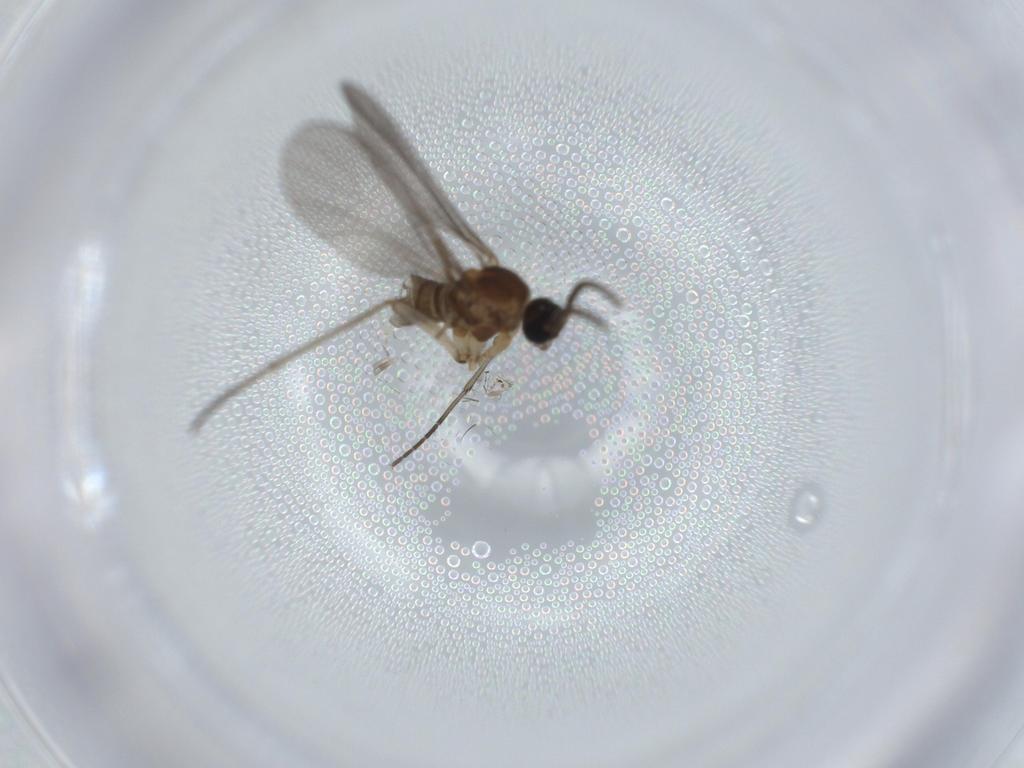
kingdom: Animalia
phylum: Arthropoda
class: Insecta
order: Diptera
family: Sciaridae
